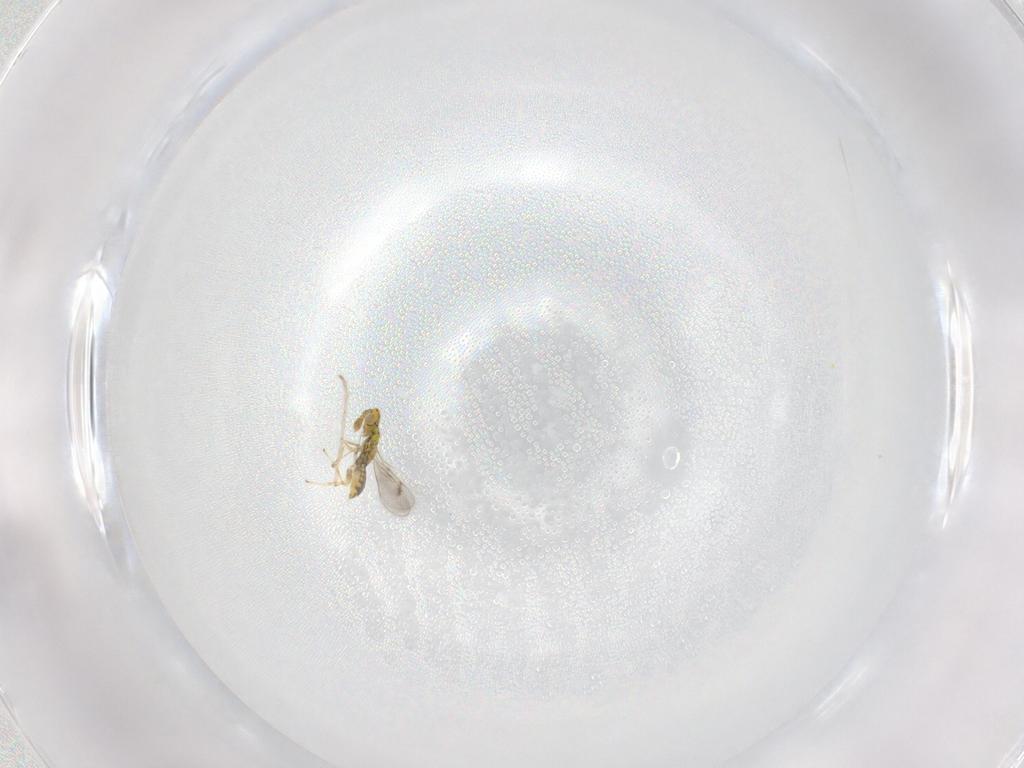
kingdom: Animalia
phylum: Arthropoda
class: Insecta
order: Hymenoptera
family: Eulophidae
